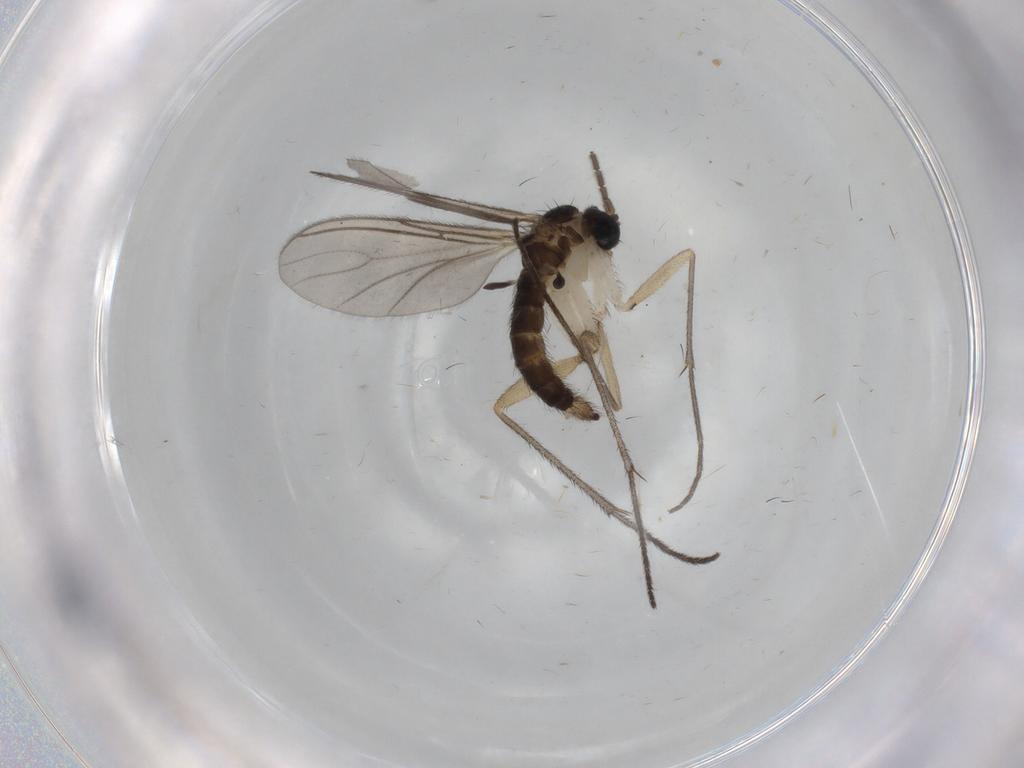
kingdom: Animalia
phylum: Arthropoda
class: Insecta
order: Diptera
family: Sciaridae
